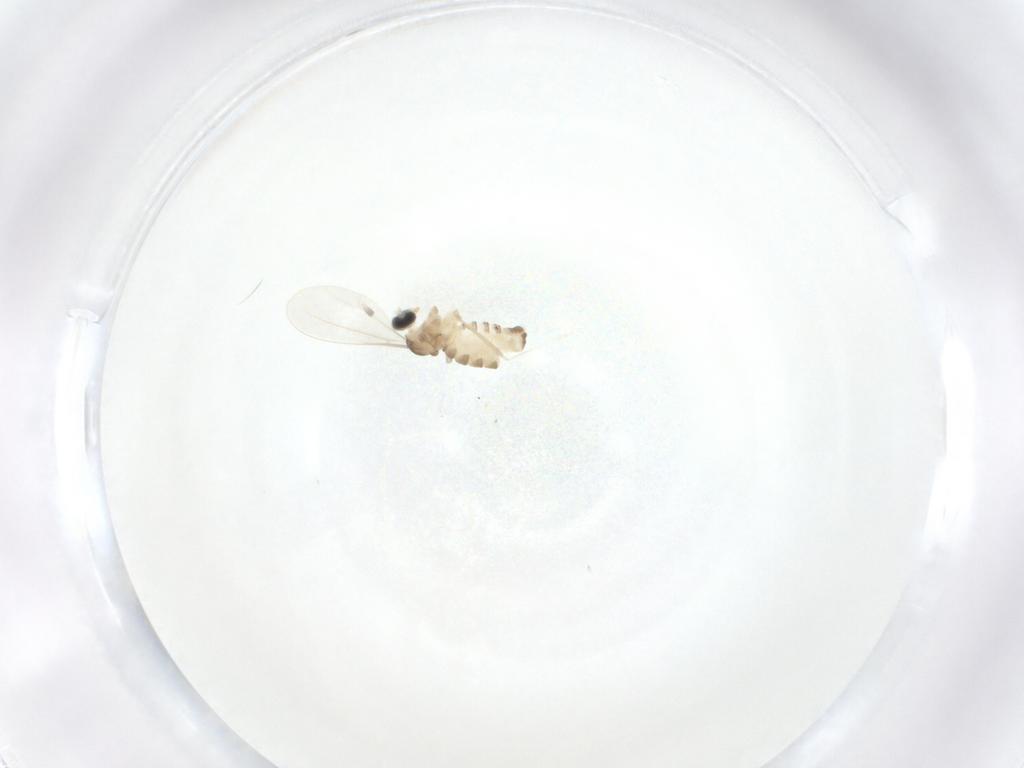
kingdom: Animalia
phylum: Arthropoda
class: Insecta
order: Diptera
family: Cecidomyiidae
